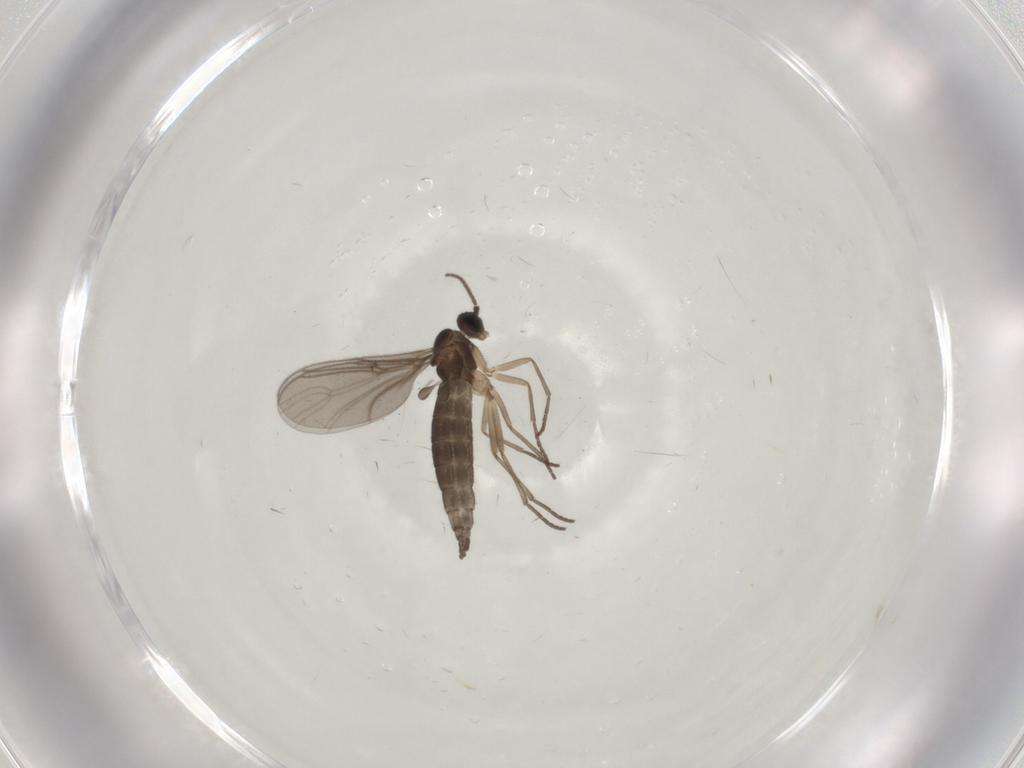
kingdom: Animalia
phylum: Arthropoda
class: Insecta
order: Diptera
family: Sciaridae
